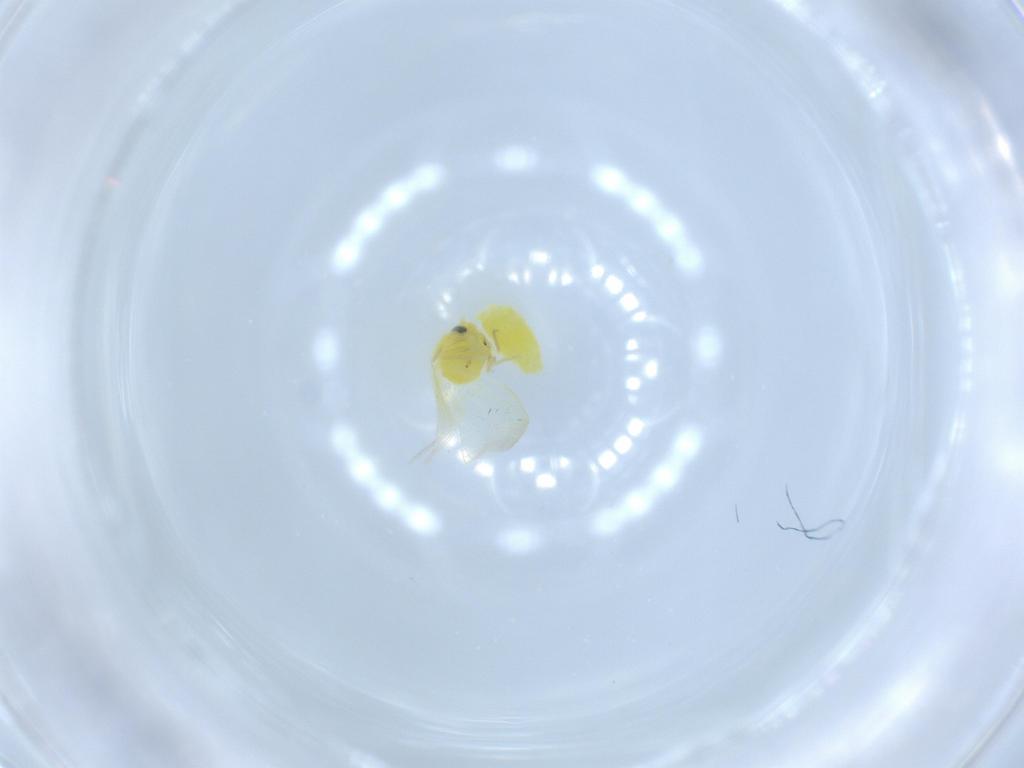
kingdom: Animalia
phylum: Arthropoda
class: Insecta
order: Hemiptera
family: Aleyrodidae
